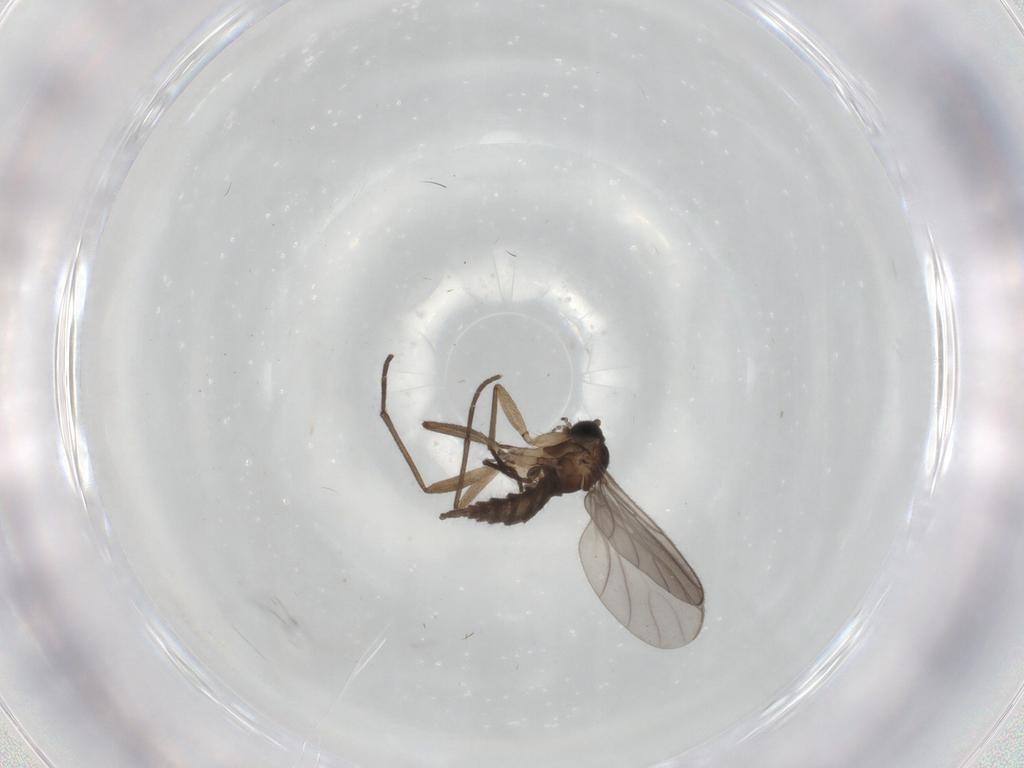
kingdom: Animalia
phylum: Arthropoda
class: Insecta
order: Diptera
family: Sciaridae
